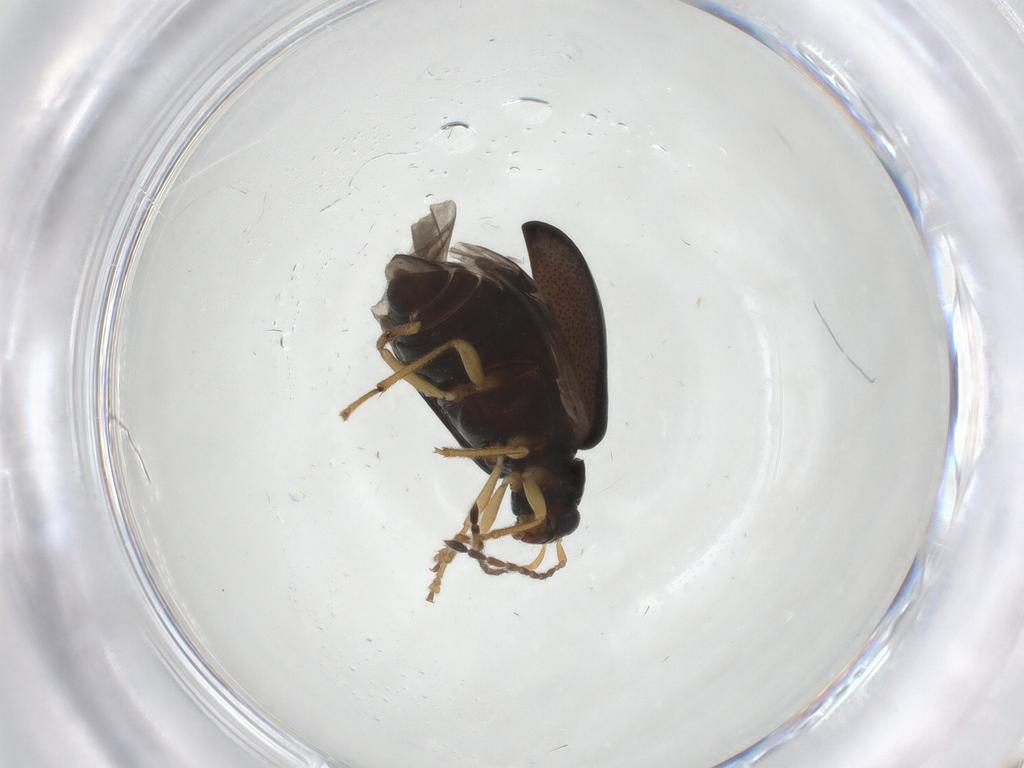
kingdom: Animalia
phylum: Arthropoda
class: Insecta
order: Coleoptera
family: Chrysomelidae
